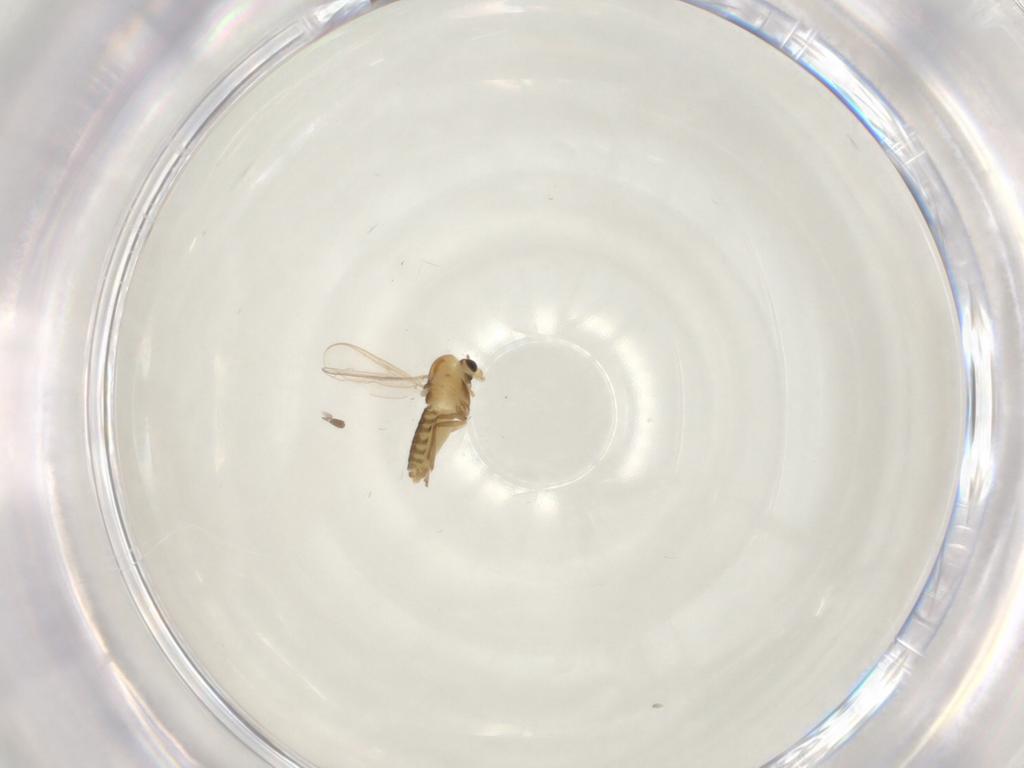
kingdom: Animalia
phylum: Arthropoda
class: Insecta
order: Diptera
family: Chironomidae
